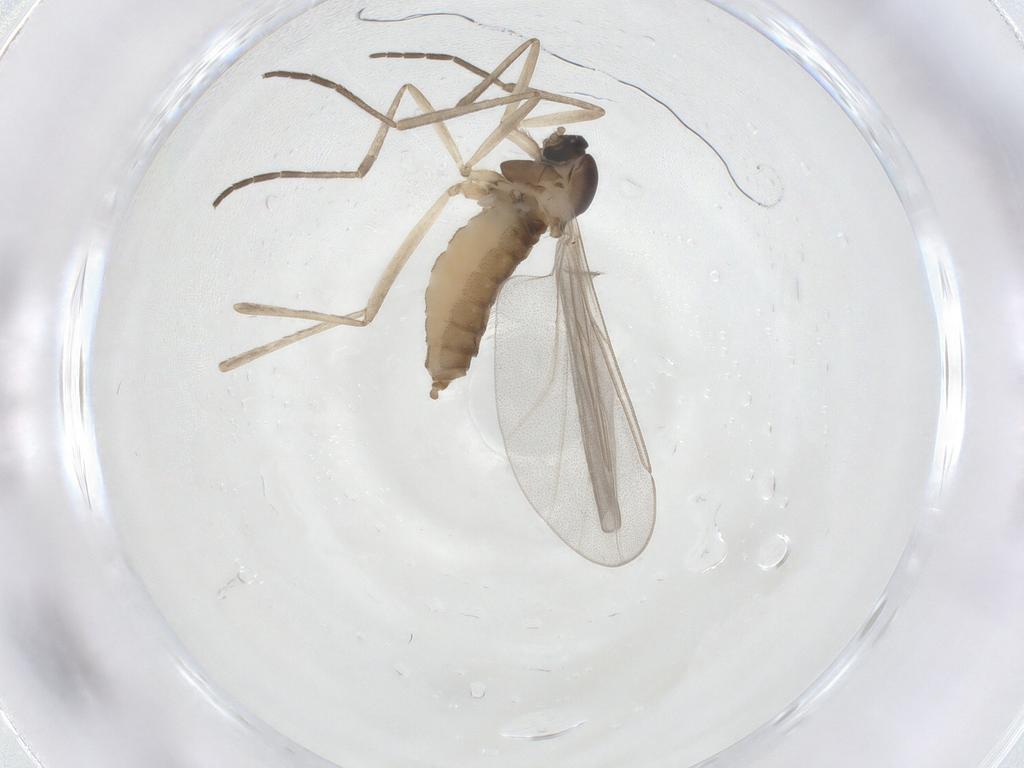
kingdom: Animalia
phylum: Arthropoda
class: Insecta
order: Diptera
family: Cecidomyiidae
